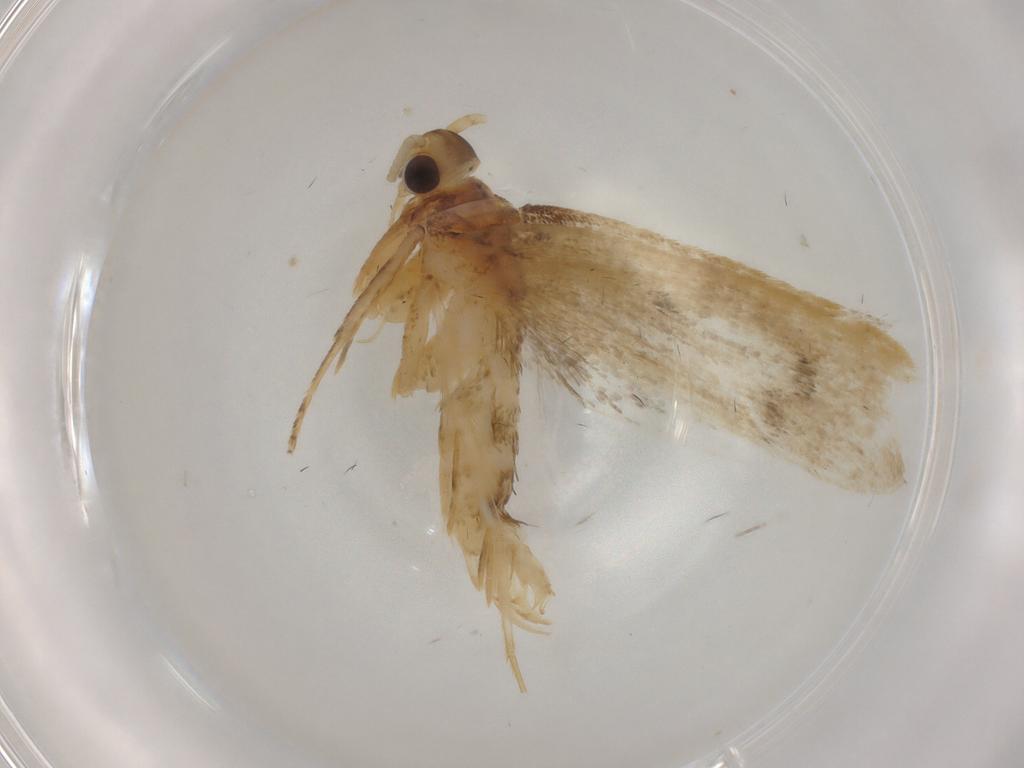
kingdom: Animalia
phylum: Arthropoda
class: Insecta
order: Lepidoptera
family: Lecithoceridae
